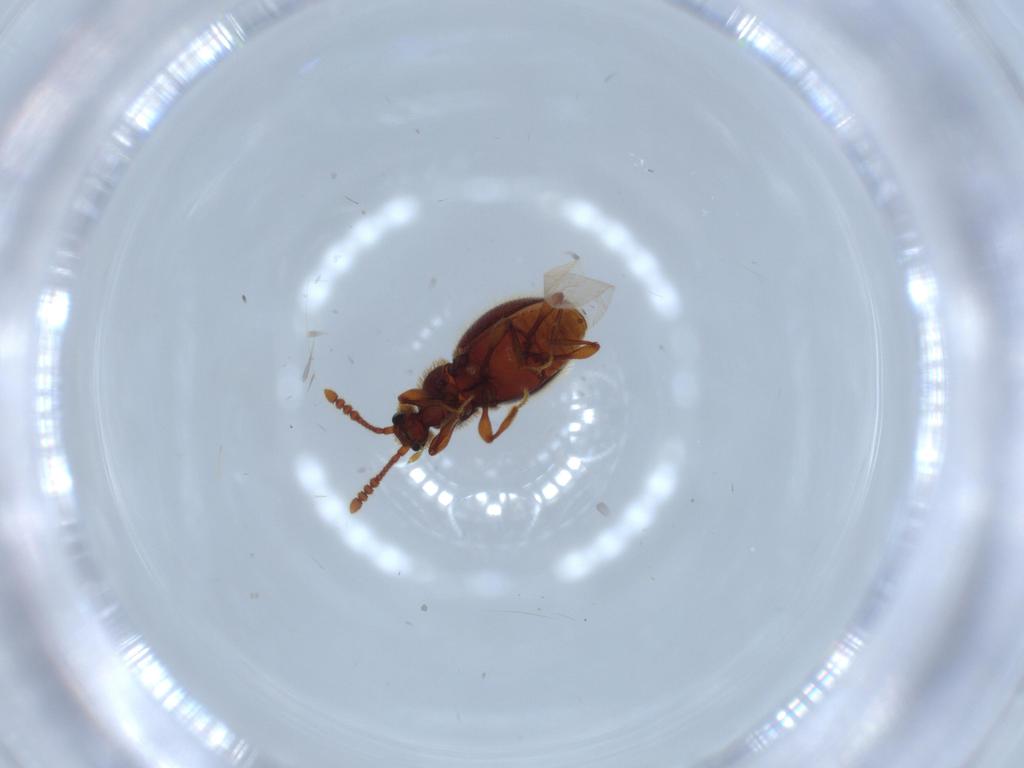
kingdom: Animalia
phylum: Arthropoda
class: Insecta
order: Coleoptera
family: Staphylinidae
